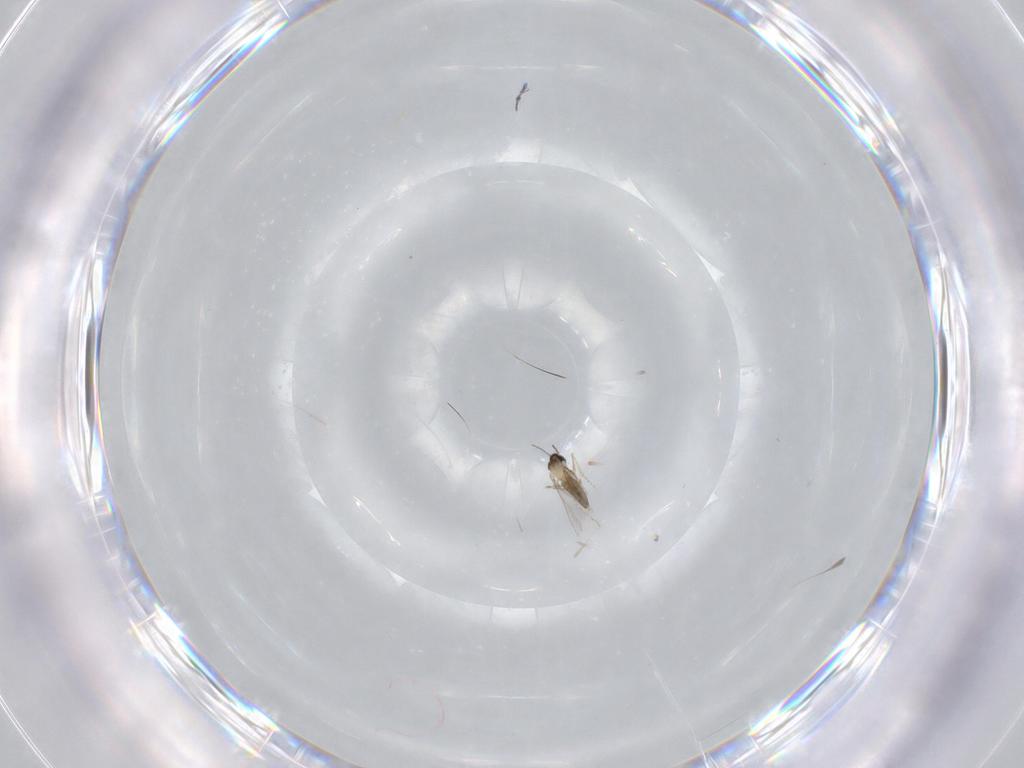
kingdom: Animalia
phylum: Arthropoda
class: Insecta
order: Diptera
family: Cecidomyiidae
